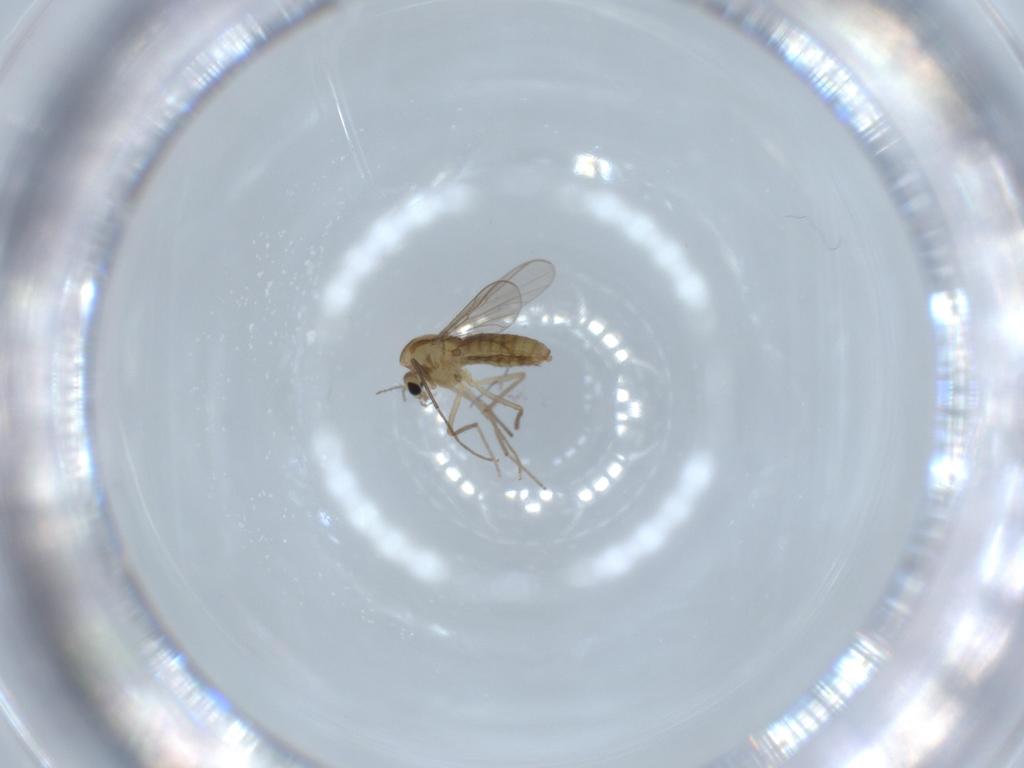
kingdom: Animalia
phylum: Arthropoda
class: Insecta
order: Diptera
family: Chironomidae
